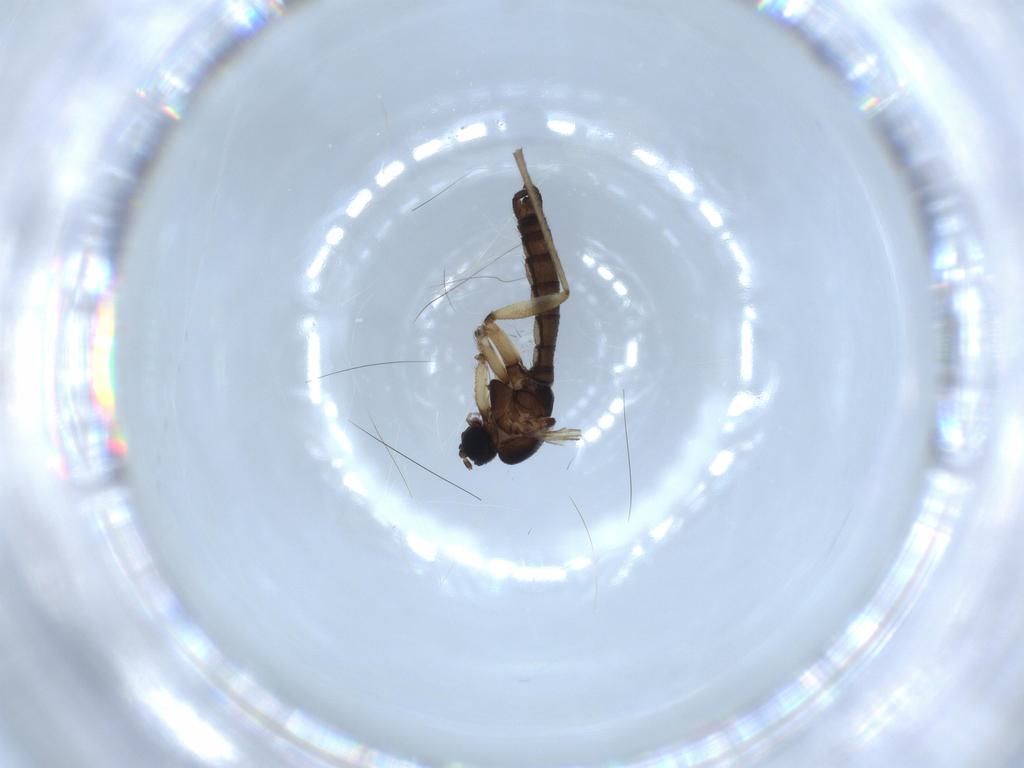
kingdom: Animalia
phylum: Arthropoda
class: Insecta
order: Diptera
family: Sciaridae
